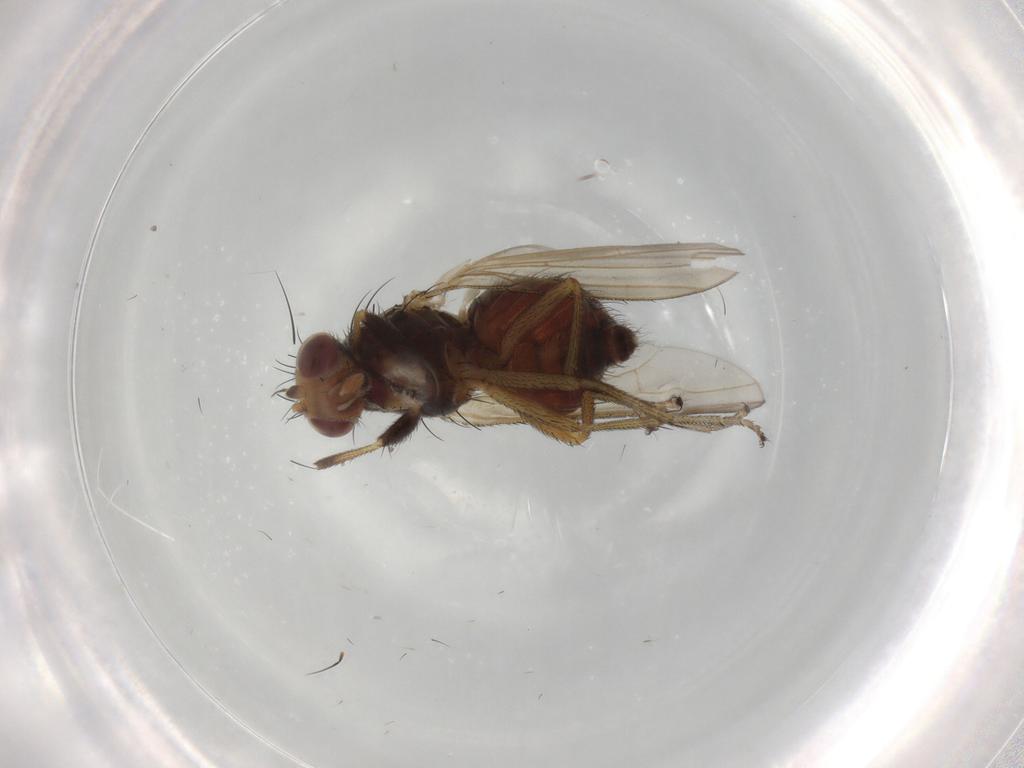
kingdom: Animalia
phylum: Arthropoda
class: Insecta
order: Diptera
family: Ulidiidae
